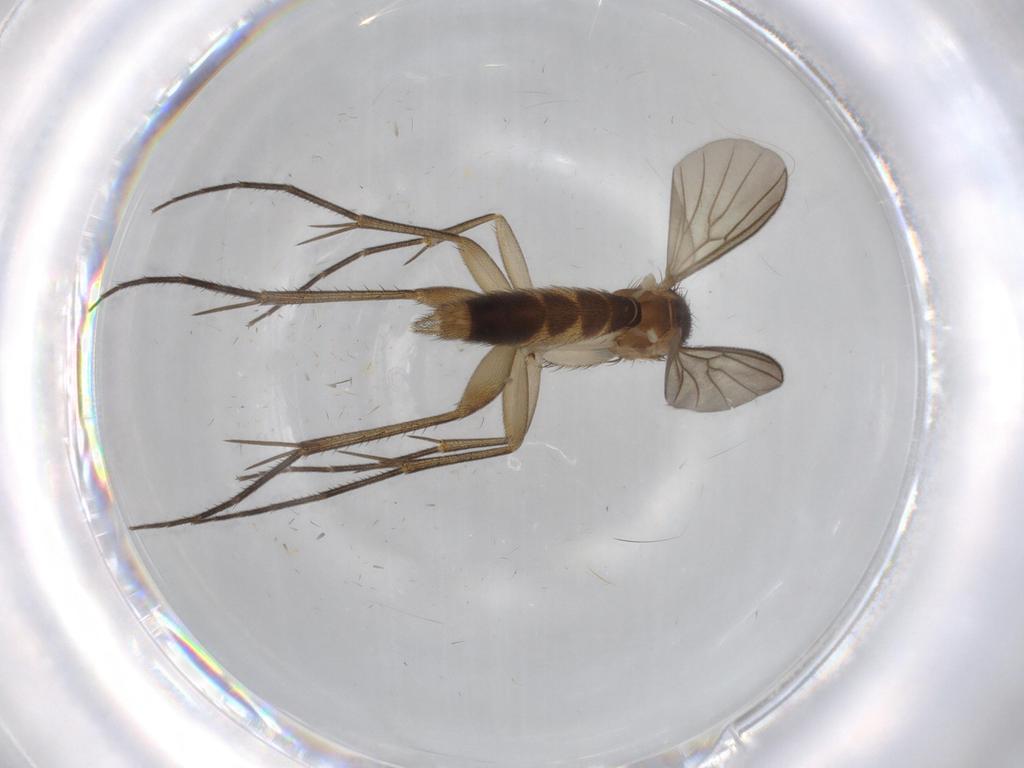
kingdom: Animalia
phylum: Arthropoda
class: Insecta
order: Diptera
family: Mycetophilidae
